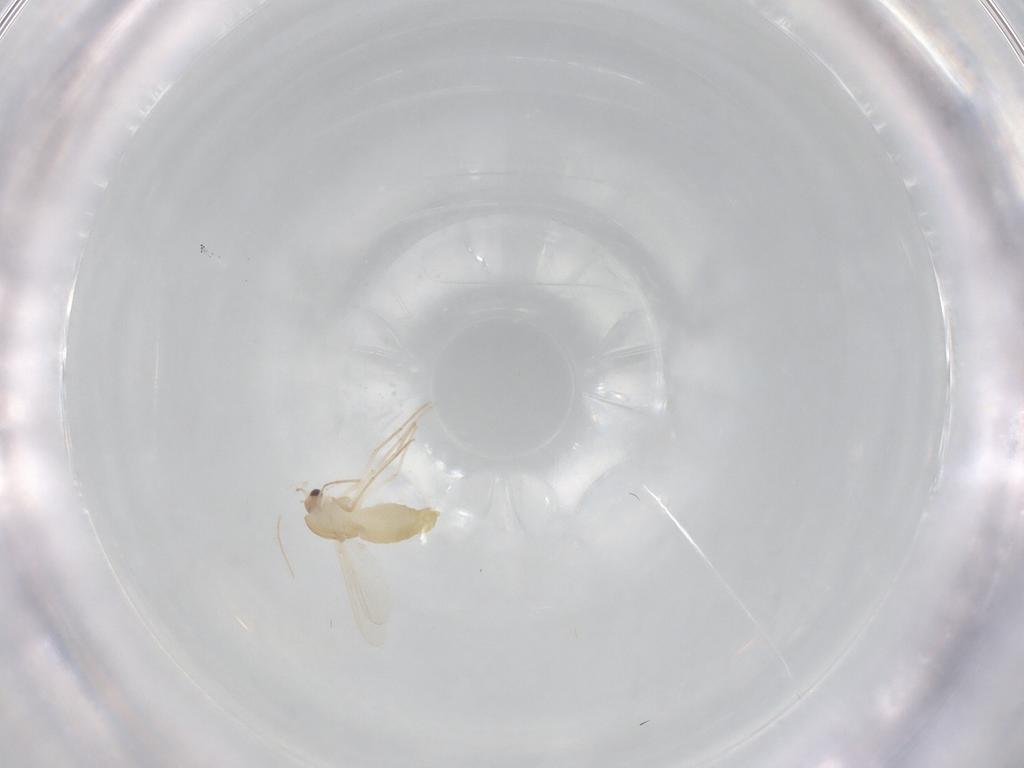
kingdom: Animalia
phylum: Arthropoda
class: Insecta
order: Diptera
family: Chironomidae
